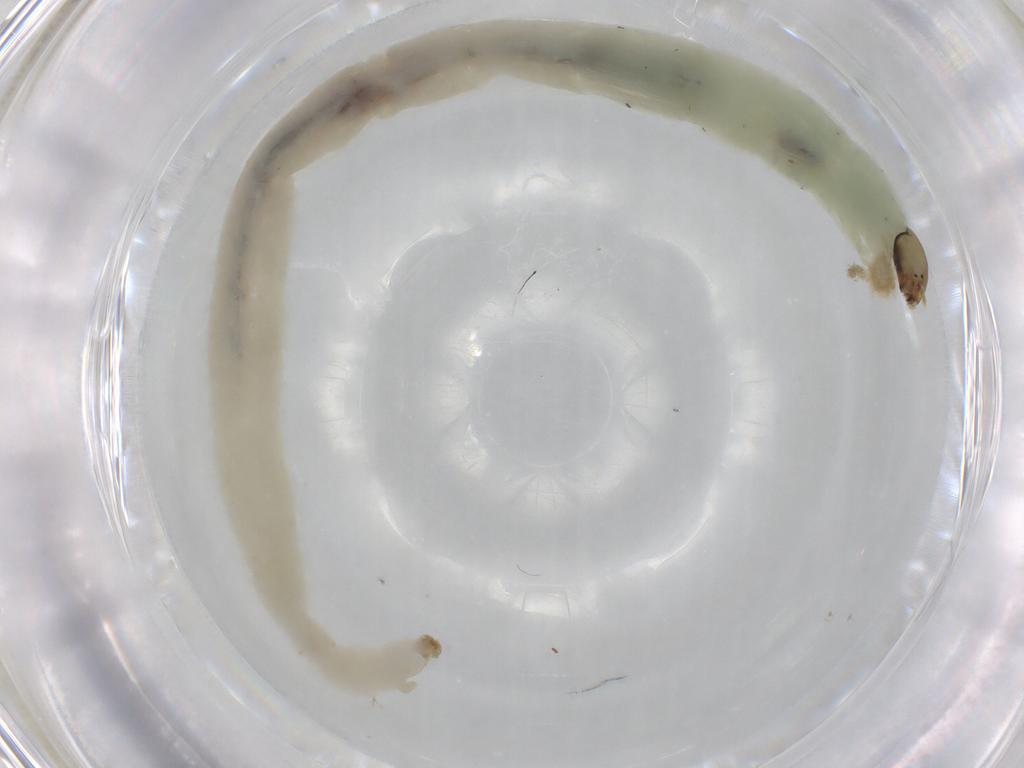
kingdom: Animalia
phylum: Arthropoda
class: Insecta
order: Diptera
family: Chironomidae
